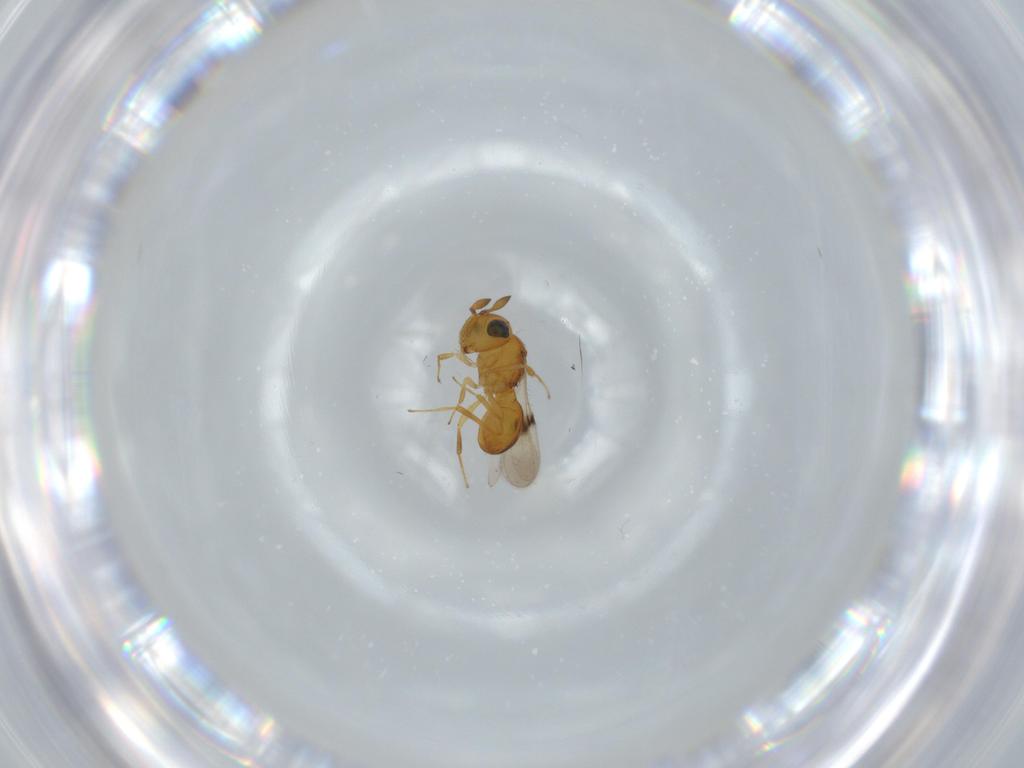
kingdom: Animalia
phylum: Arthropoda
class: Insecta
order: Hymenoptera
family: Scelionidae
